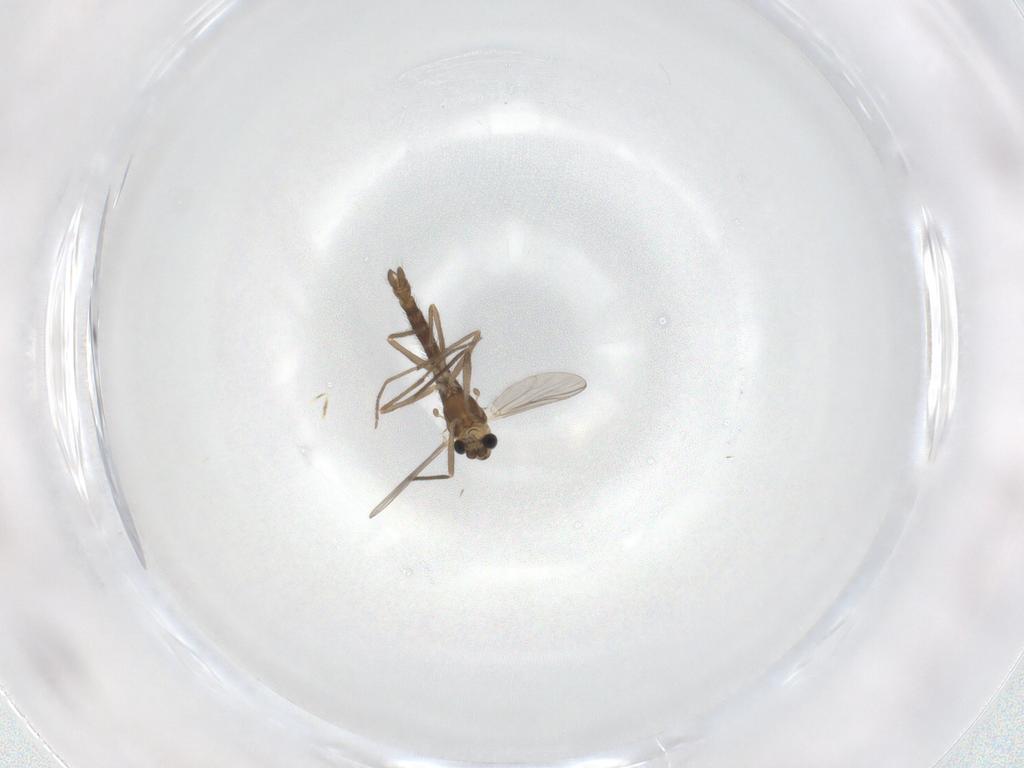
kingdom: Animalia
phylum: Arthropoda
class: Insecta
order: Diptera
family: Chironomidae
